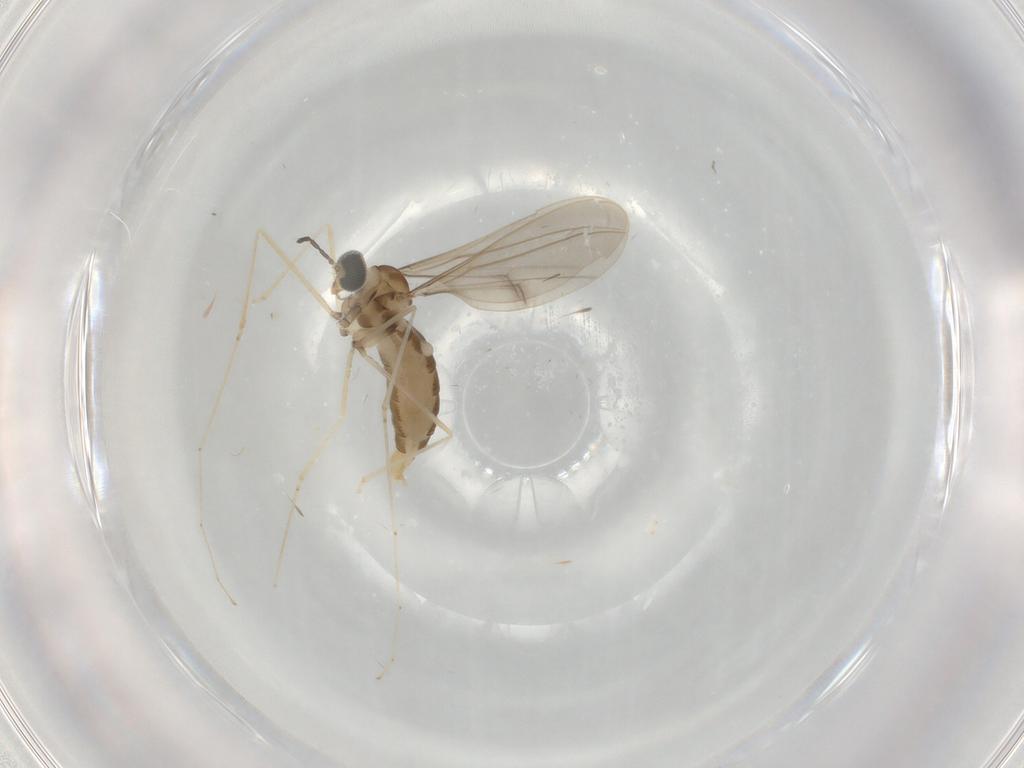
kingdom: Animalia
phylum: Arthropoda
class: Insecta
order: Diptera
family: Cecidomyiidae
